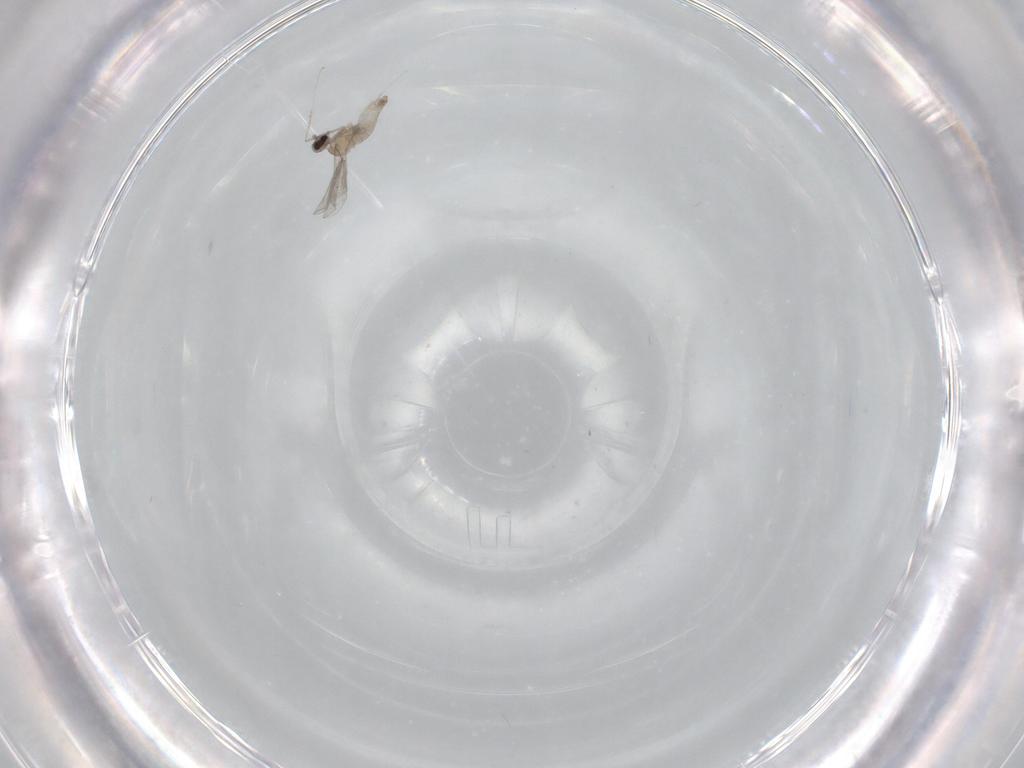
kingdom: Animalia
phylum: Arthropoda
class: Insecta
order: Diptera
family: Cecidomyiidae
